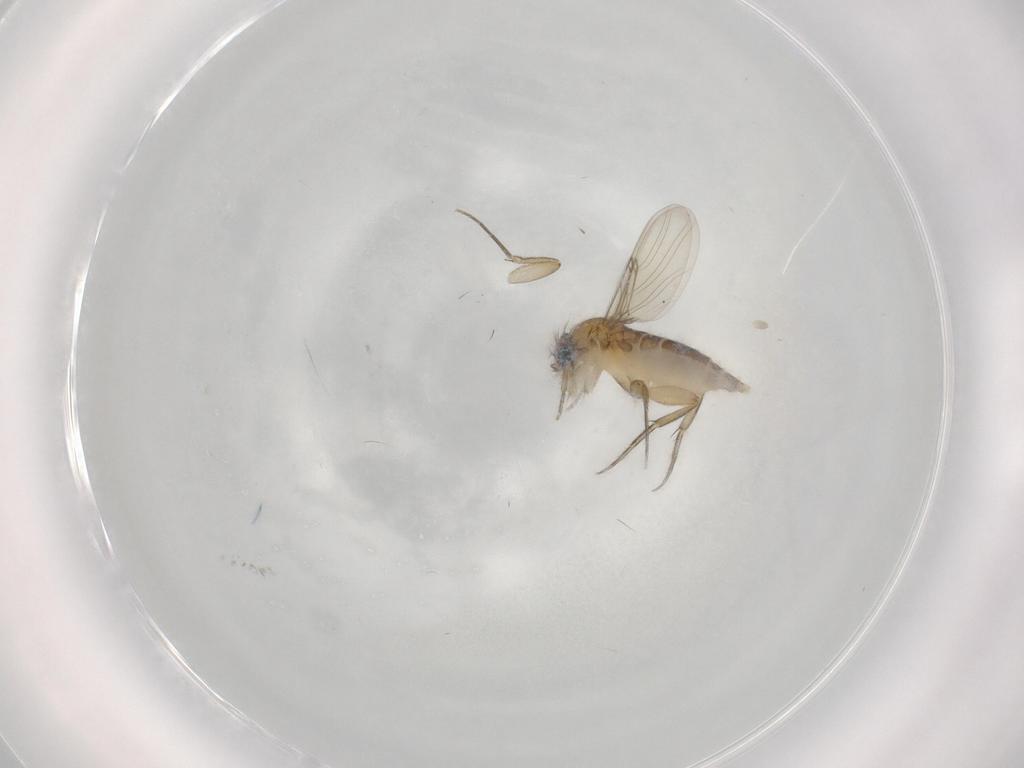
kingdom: Animalia
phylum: Arthropoda
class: Insecta
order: Diptera
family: Phoridae
